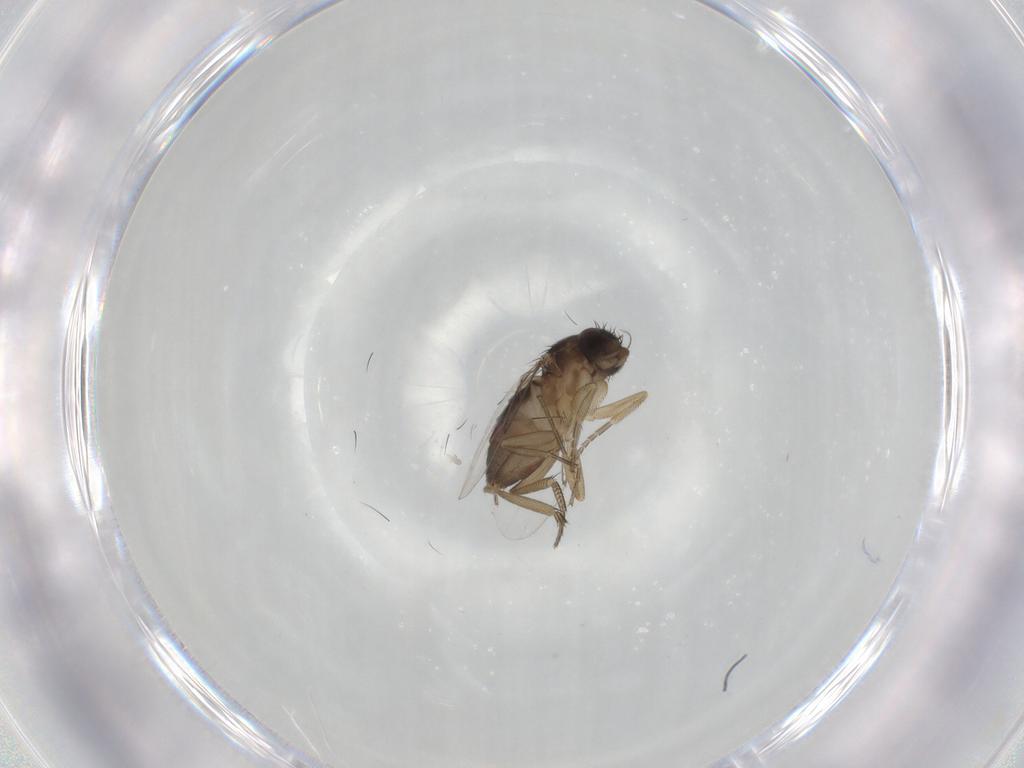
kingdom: Animalia
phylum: Arthropoda
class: Insecta
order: Diptera
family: Phoridae
